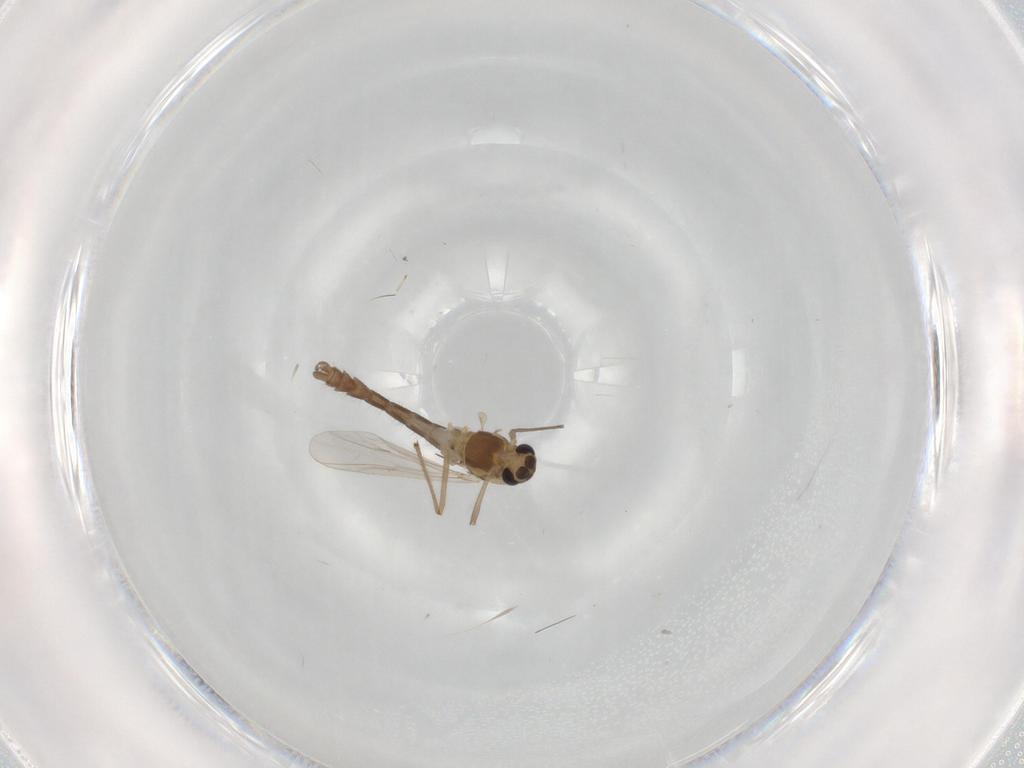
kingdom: Animalia
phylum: Arthropoda
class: Insecta
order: Diptera
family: Chironomidae
